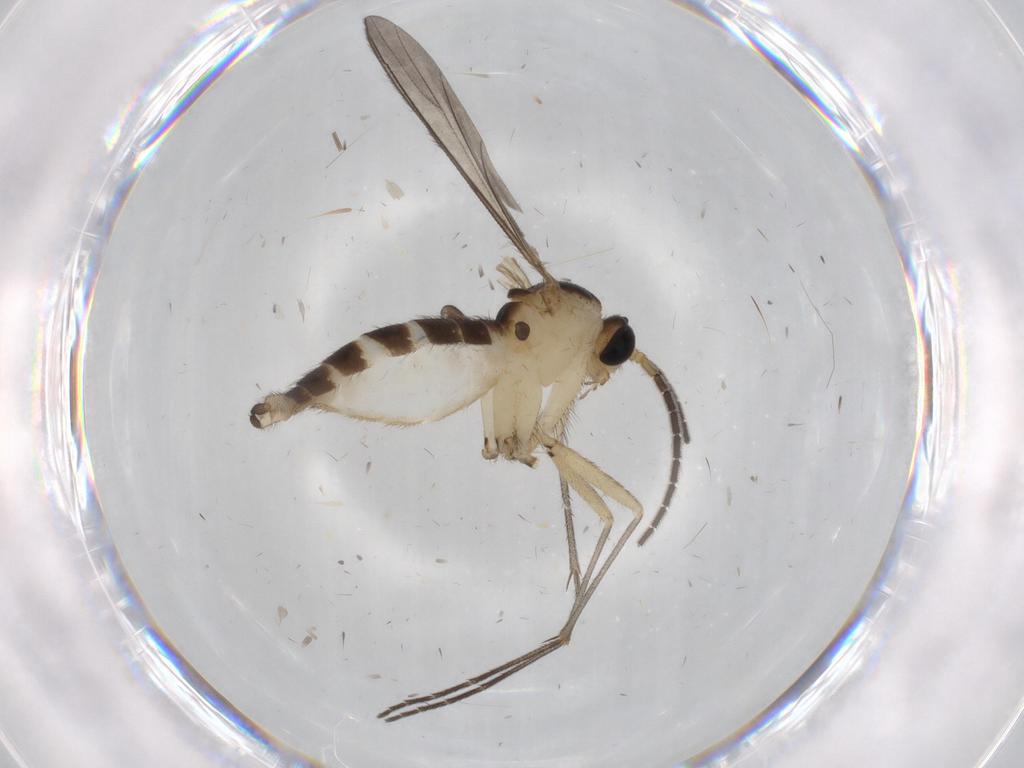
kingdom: Animalia
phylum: Arthropoda
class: Insecta
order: Diptera
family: Sciaridae
